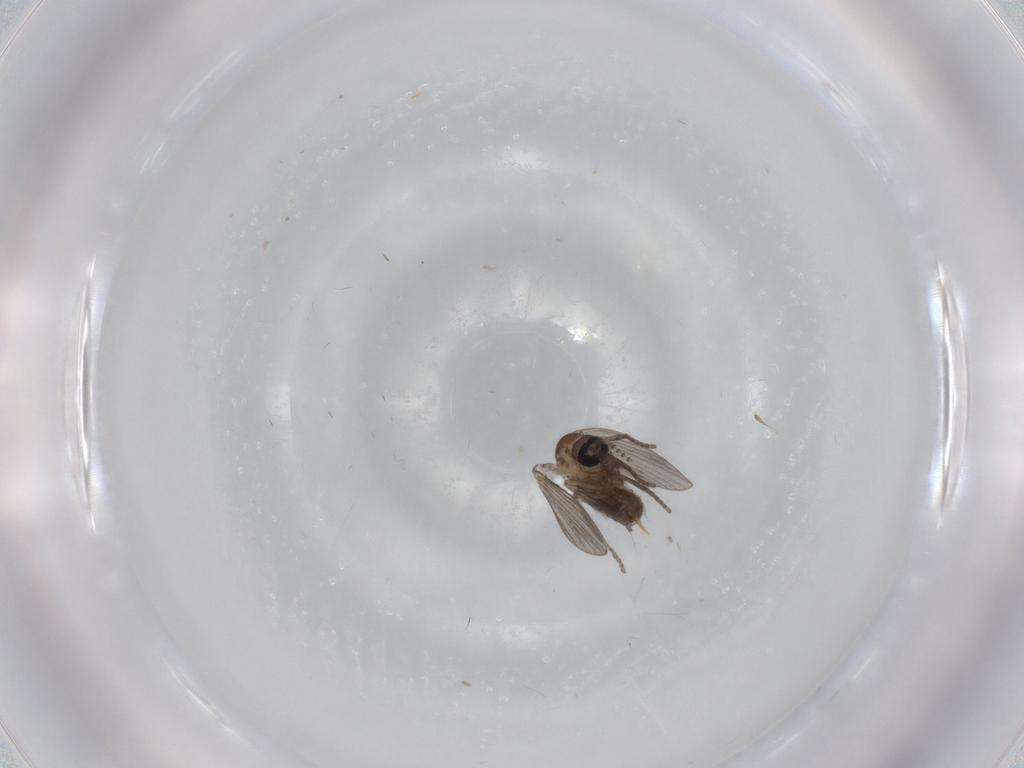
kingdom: Animalia
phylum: Arthropoda
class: Insecta
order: Diptera
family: Psychodidae
